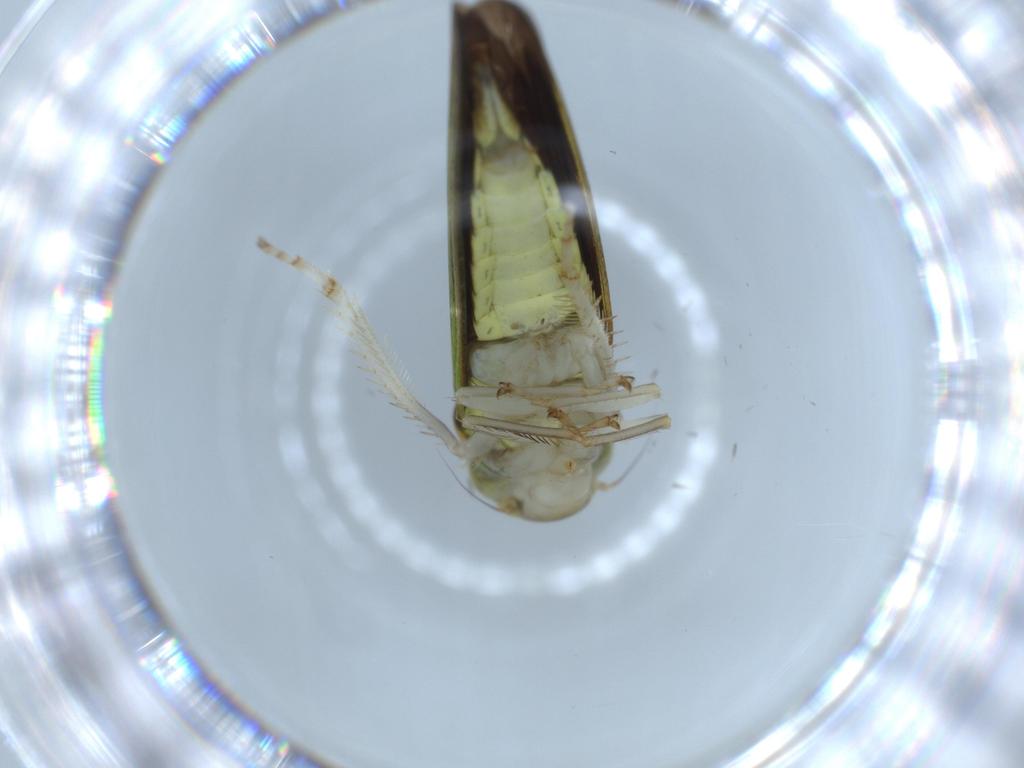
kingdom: Animalia
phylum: Arthropoda
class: Insecta
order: Hemiptera
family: Cicadellidae
